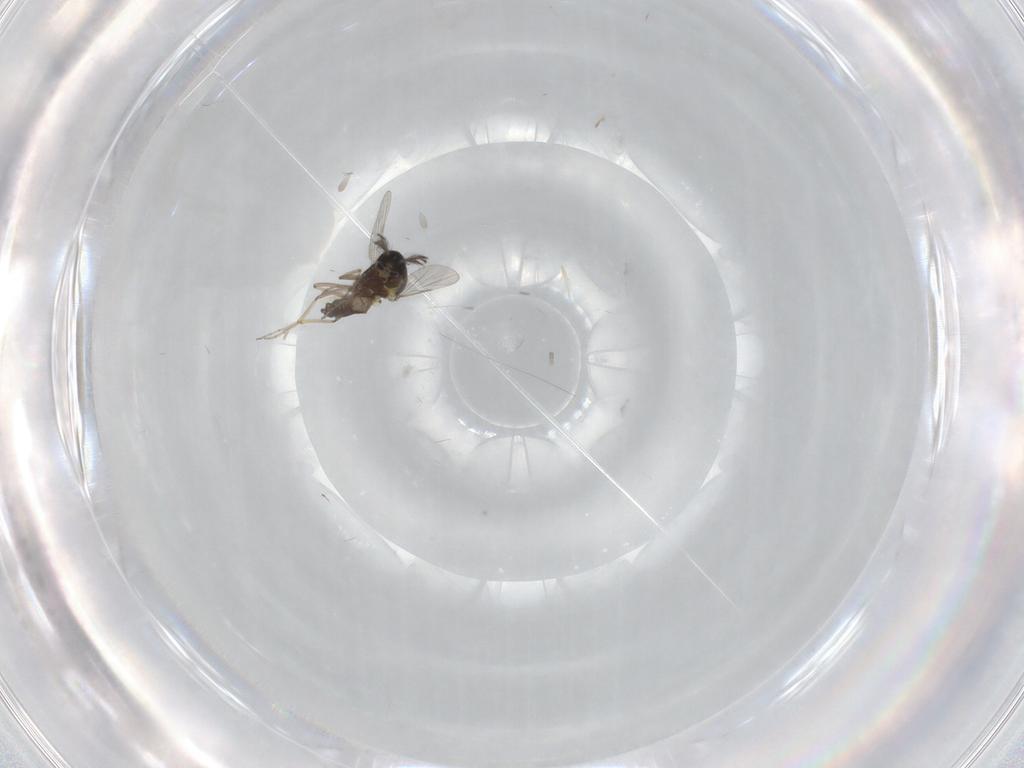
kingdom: Animalia
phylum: Arthropoda
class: Insecta
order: Diptera
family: Ceratopogonidae
